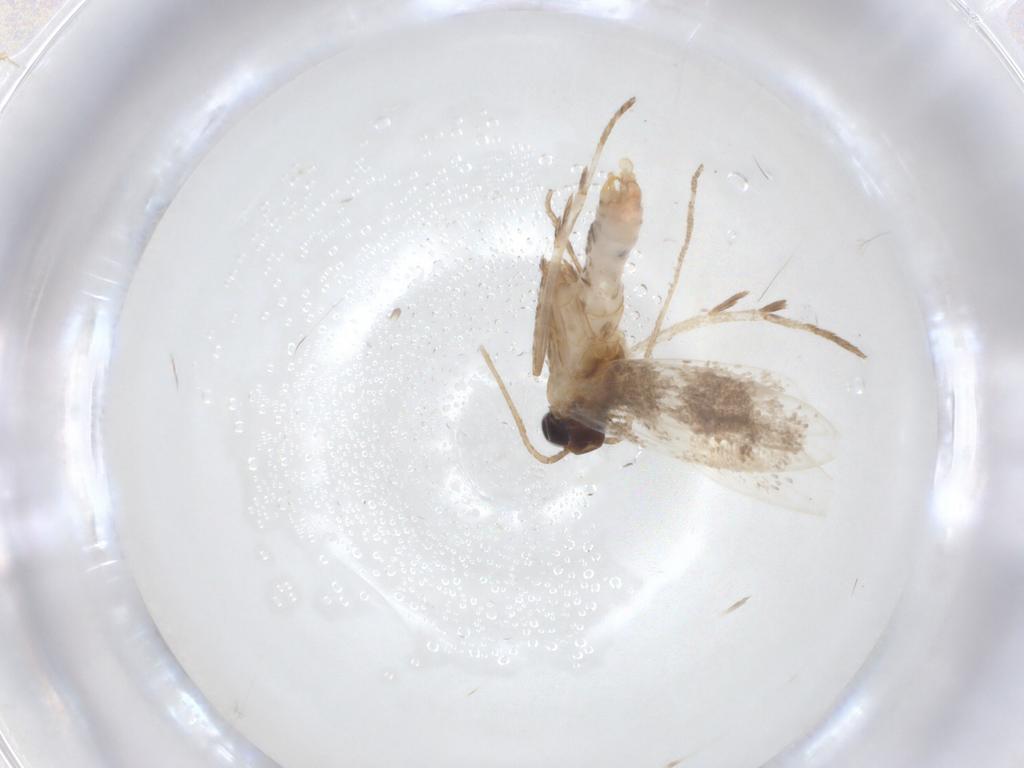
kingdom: Animalia
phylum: Arthropoda
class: Insecta
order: Lepidoptera
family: Cosmopterigidae
